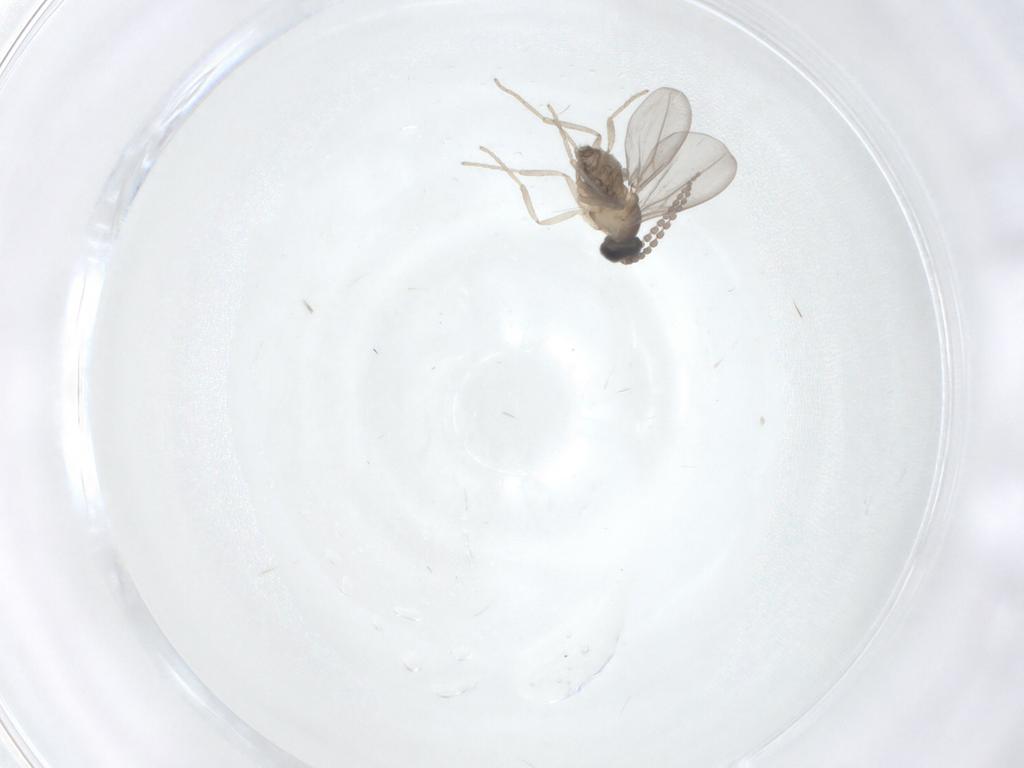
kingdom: Animalia
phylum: Arthropoda
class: Insecta
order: Diptera
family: Phoridae
